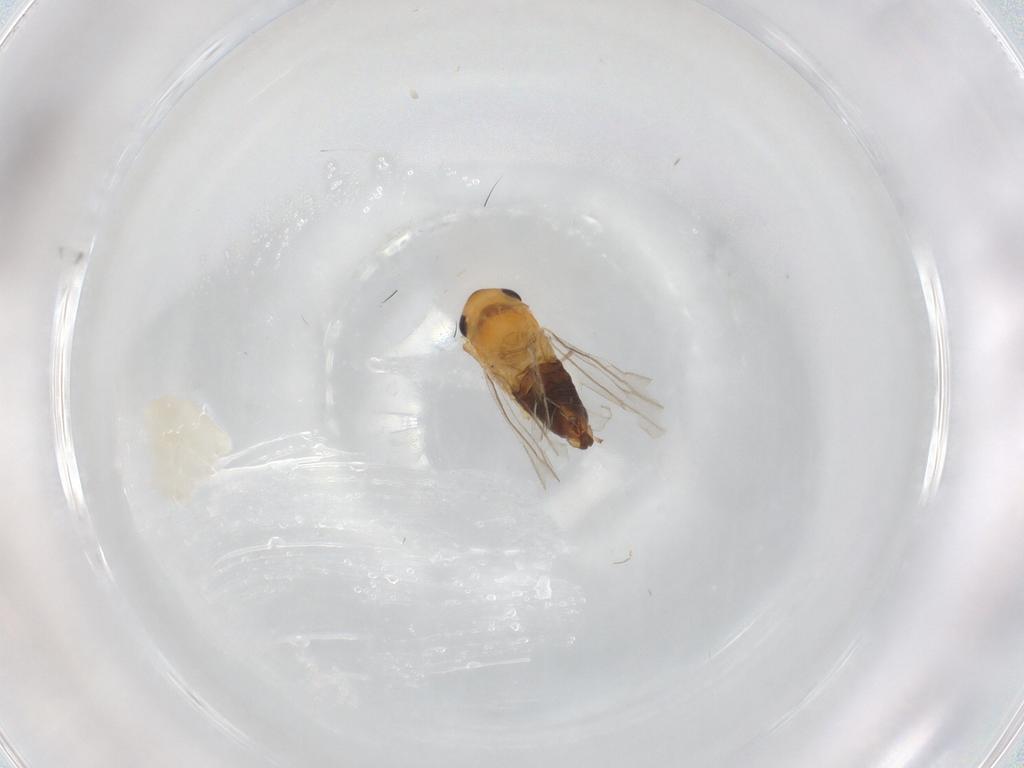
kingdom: Animalia
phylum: Arthropoda
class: Insecta
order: Hemiptera
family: Cicadellidae
